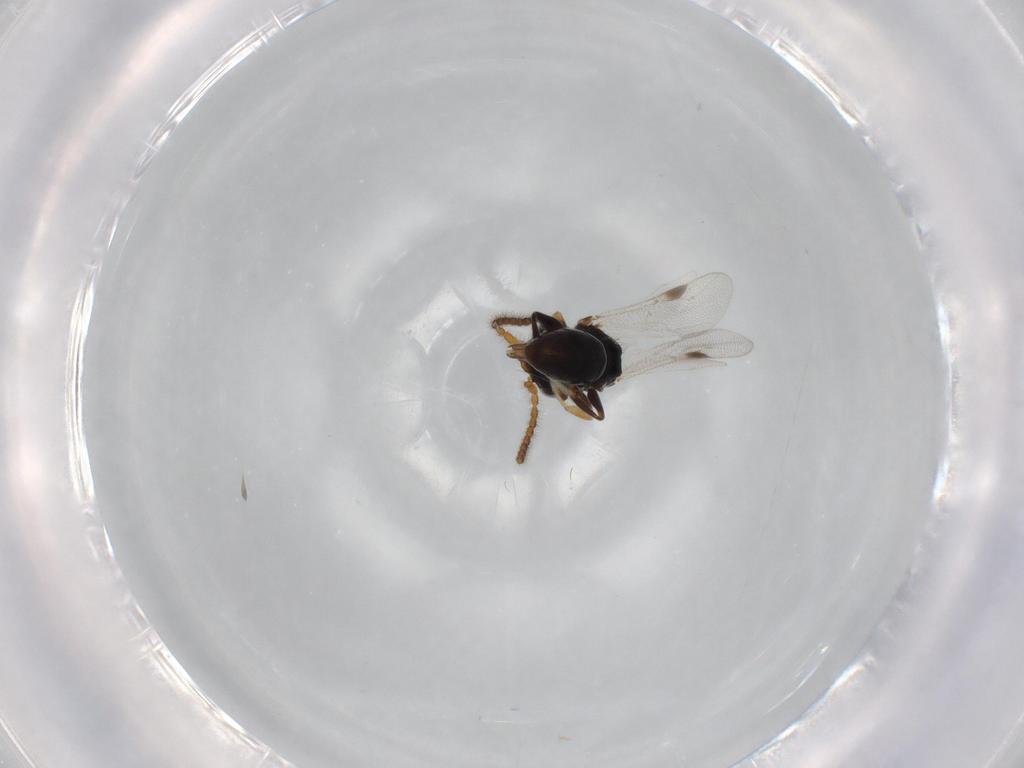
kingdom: Animalia
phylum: Arthropoda
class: Insecta
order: Hymenoptera
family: Dryinidae
